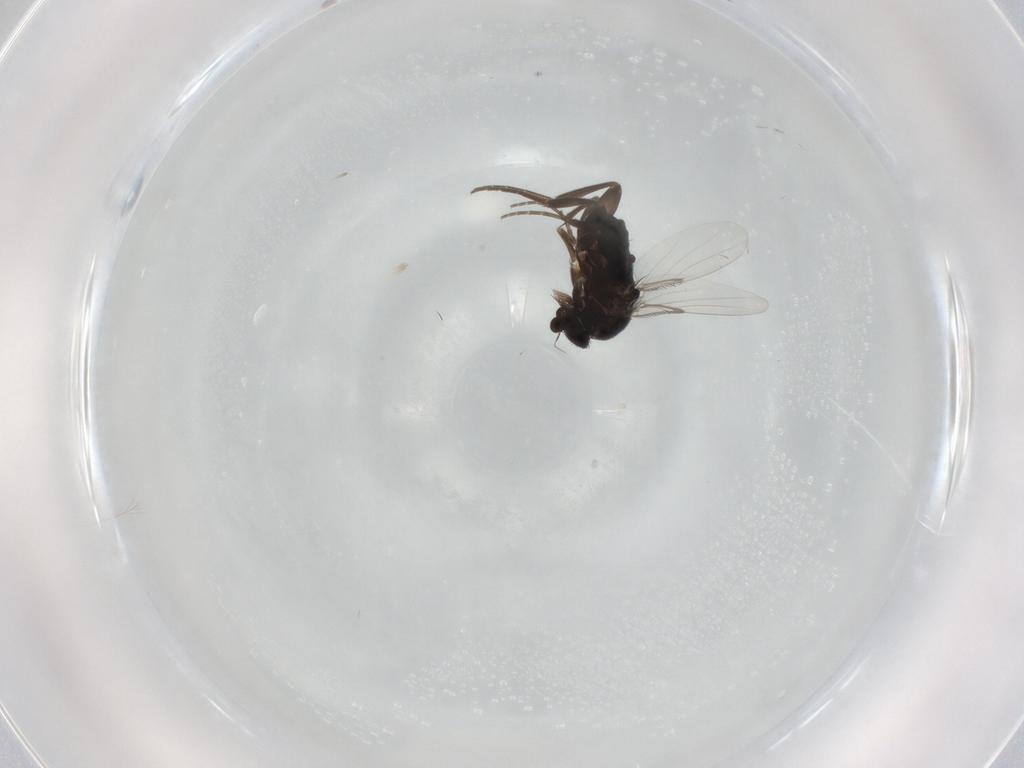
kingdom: Animalia
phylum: Arthropoda
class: Insecta
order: Diptera
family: Phoridae
